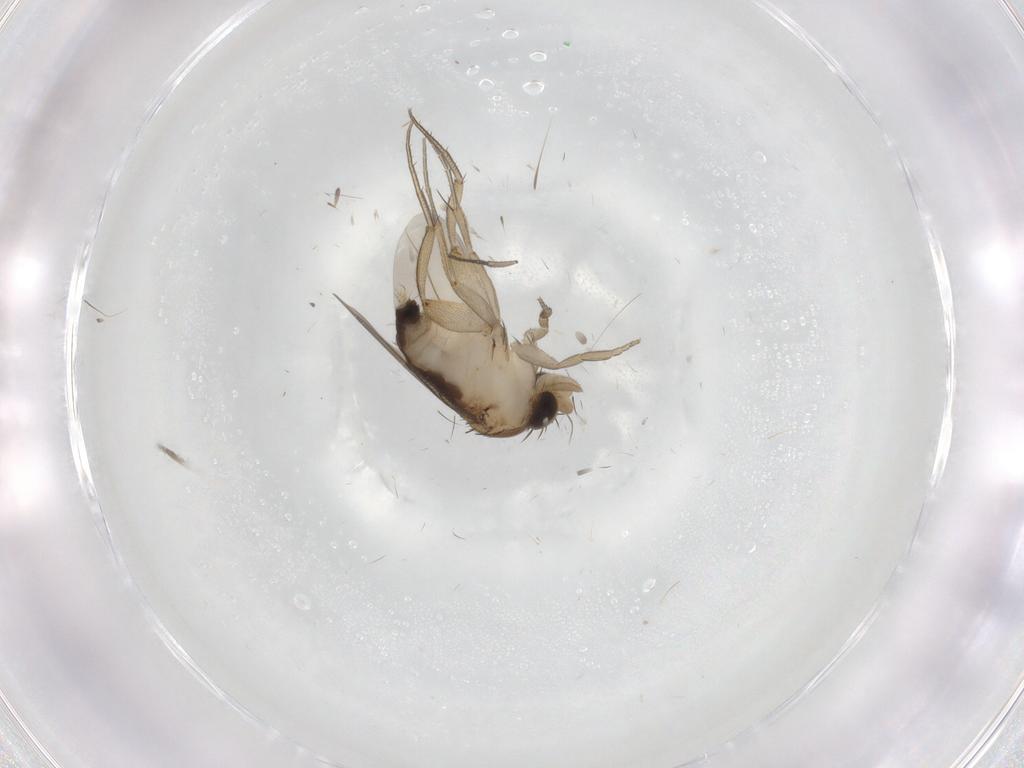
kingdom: Animalia
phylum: Arthropoda
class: Insecta
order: Diptera
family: Phoridae
